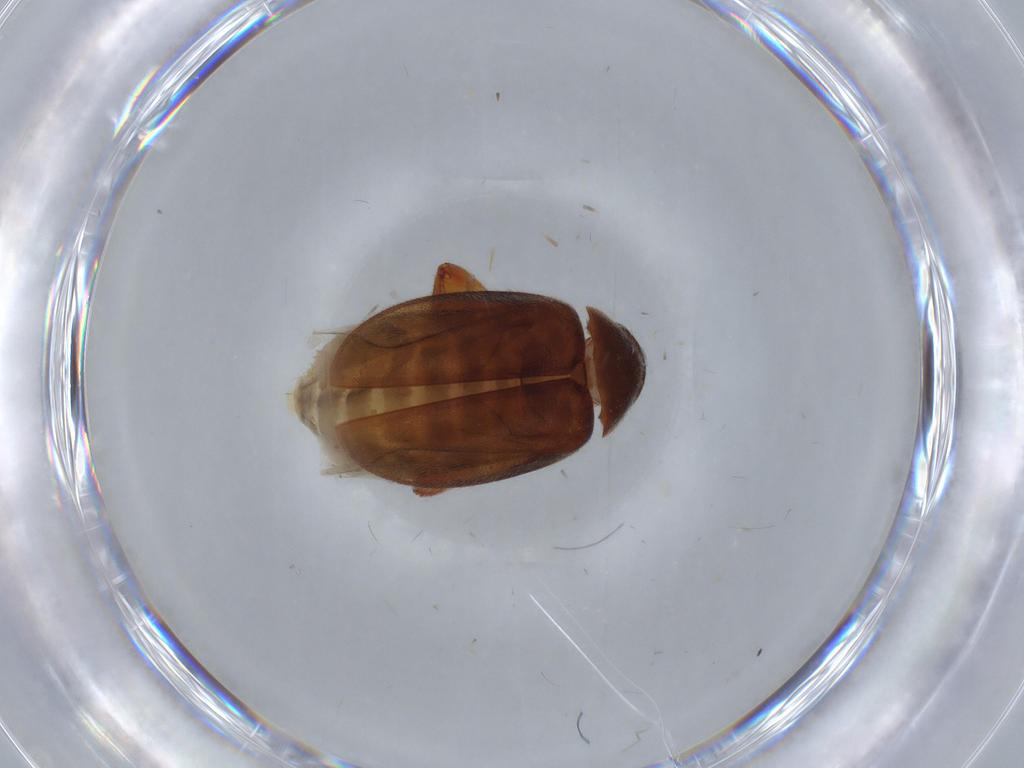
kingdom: Animalia
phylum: Arthropoda
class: Insecta
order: Coleoptera
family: Scirtidae
